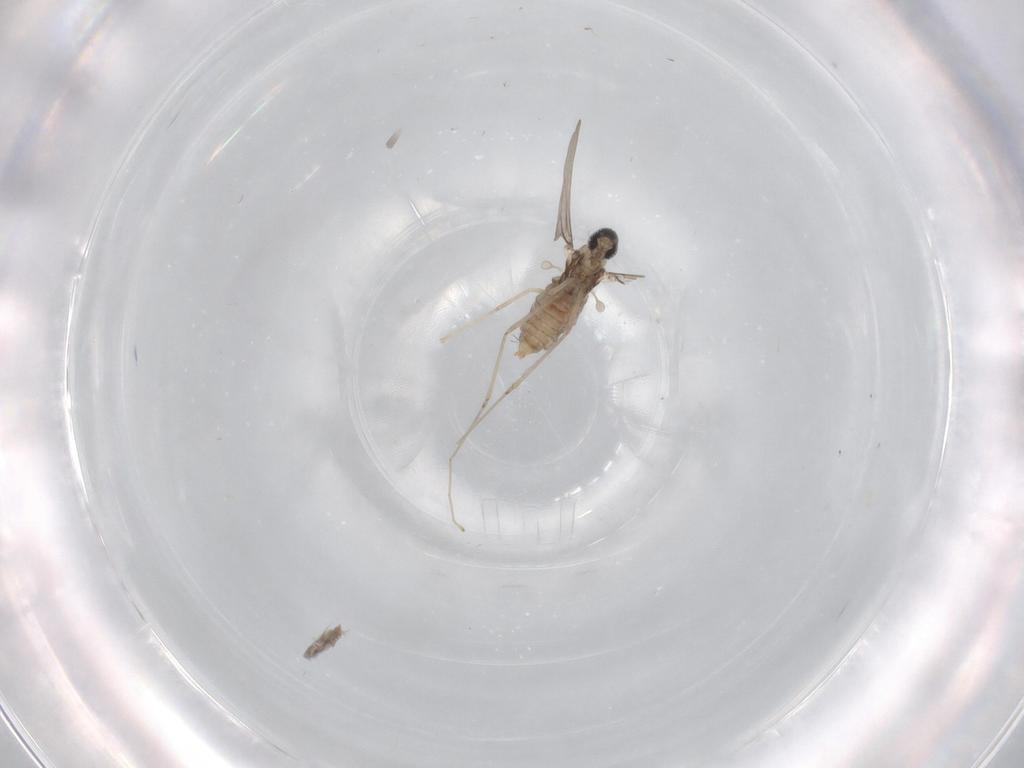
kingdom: Animalia
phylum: Arthropoda
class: Insecta
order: Diptera
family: Cecidomyiidae
